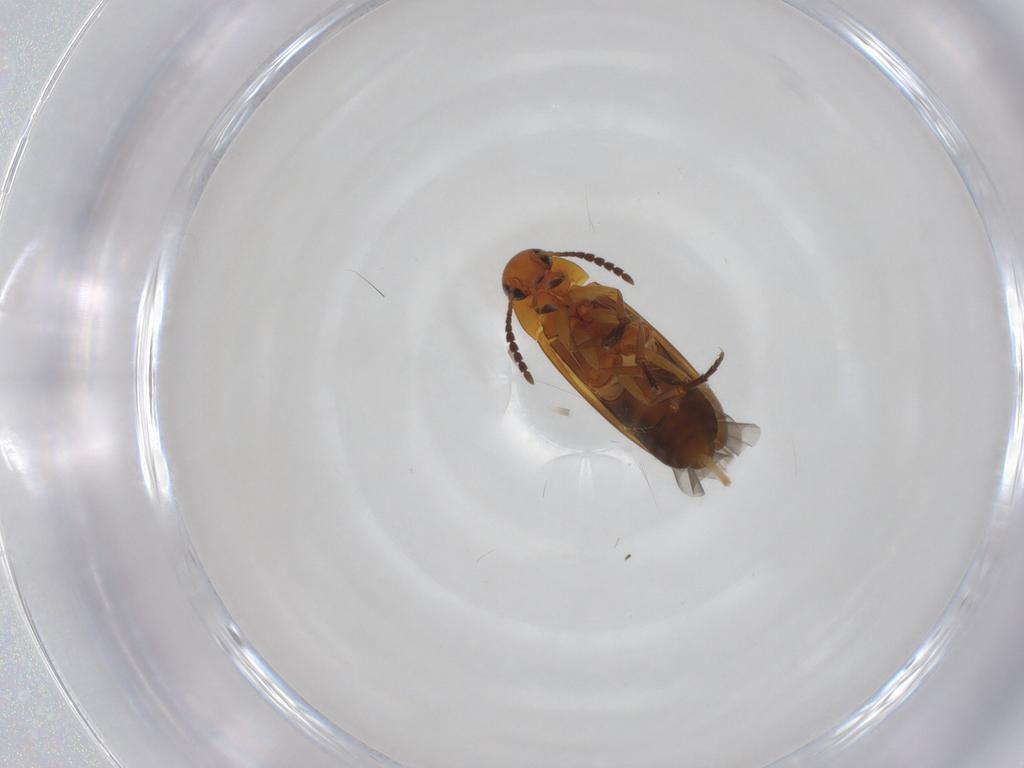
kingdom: Animalia
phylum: Arthropoda
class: Insecta
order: Coleoptera
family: Scraptiidae
